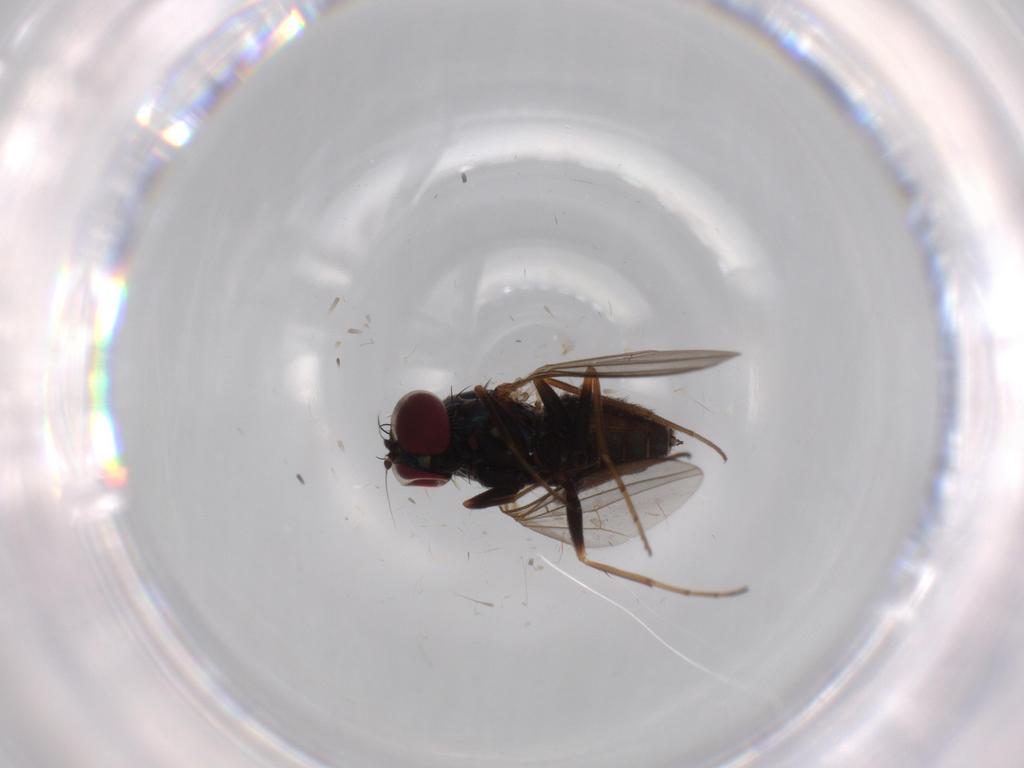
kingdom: Animalia
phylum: Arthropoda
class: Insecta
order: Diptera
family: Dolichopodidae
